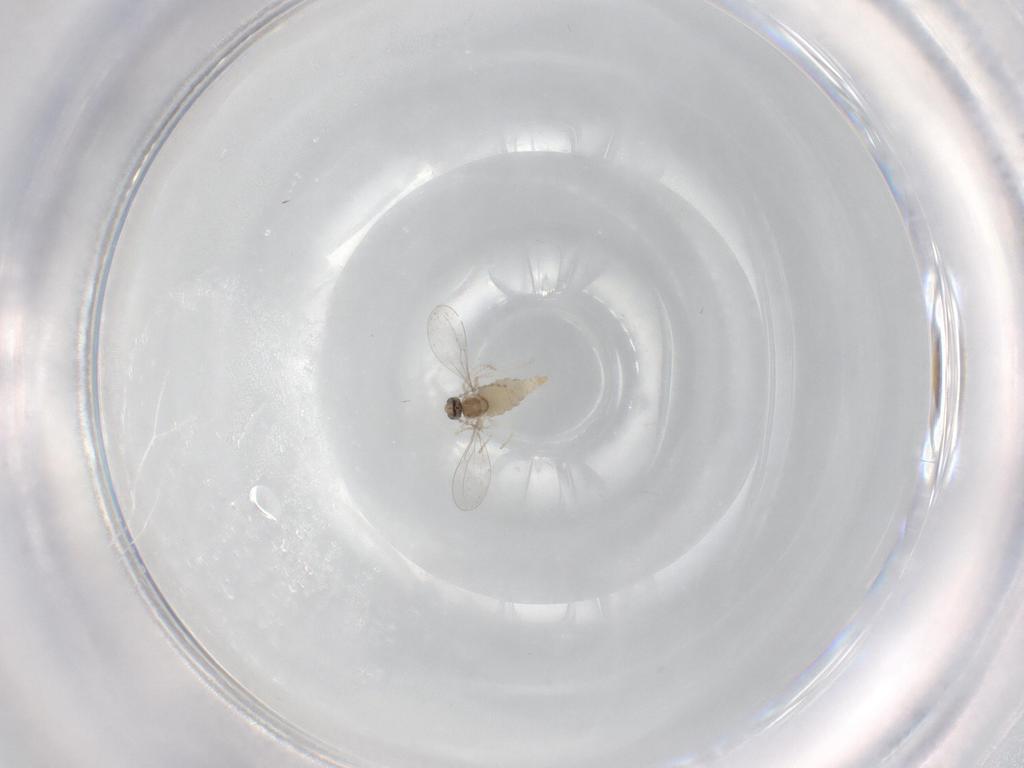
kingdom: Animalia
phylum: Arthropoda
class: Insecta
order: Diptera
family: Cecidomyiidae
